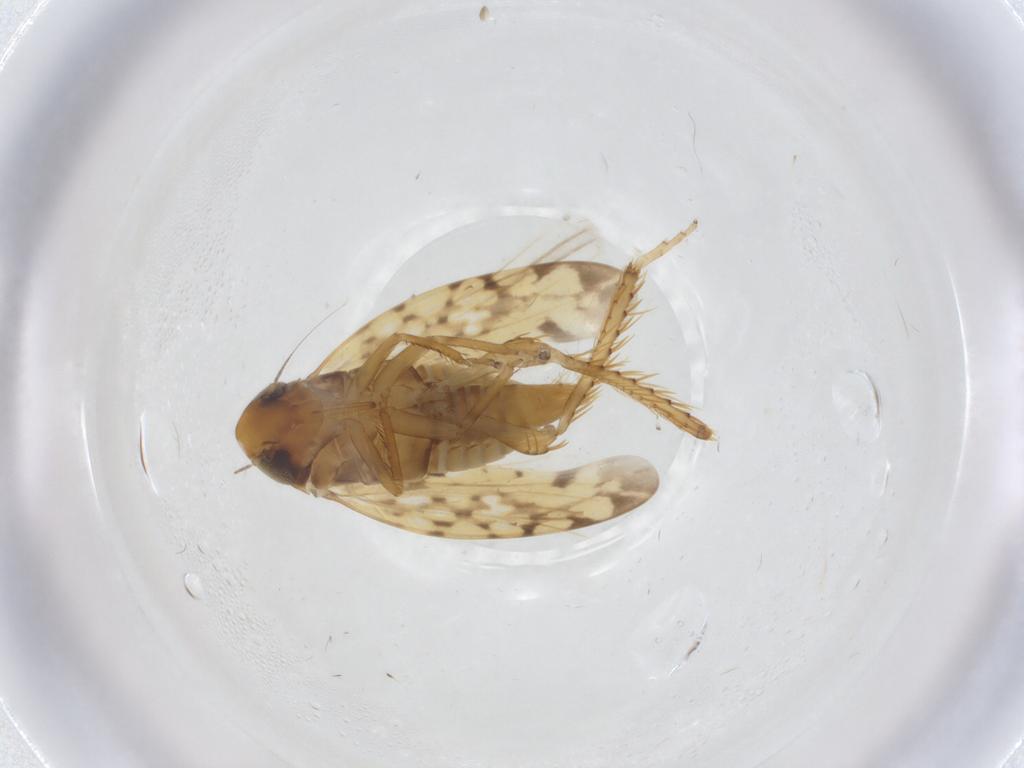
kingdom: Animalia
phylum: Arthropoda
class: Insecta
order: Hemiptera
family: Cicadellidae
